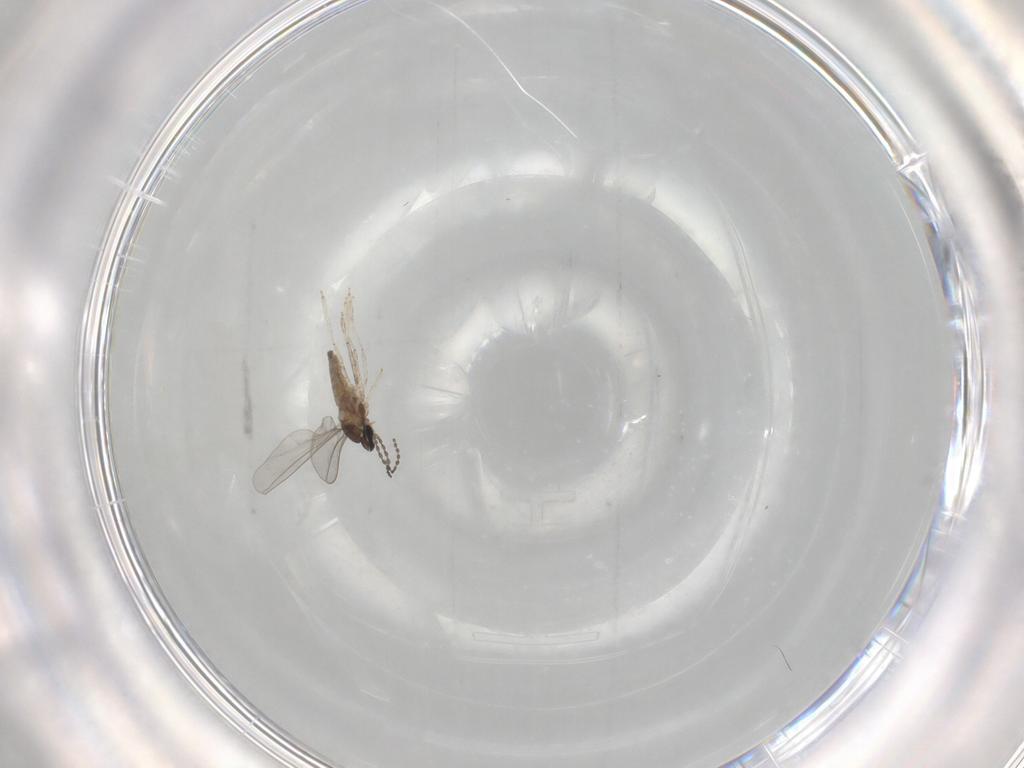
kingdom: Animalia
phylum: Arthropoda
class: Insecta
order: Diptera
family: Cecidomyiidae
